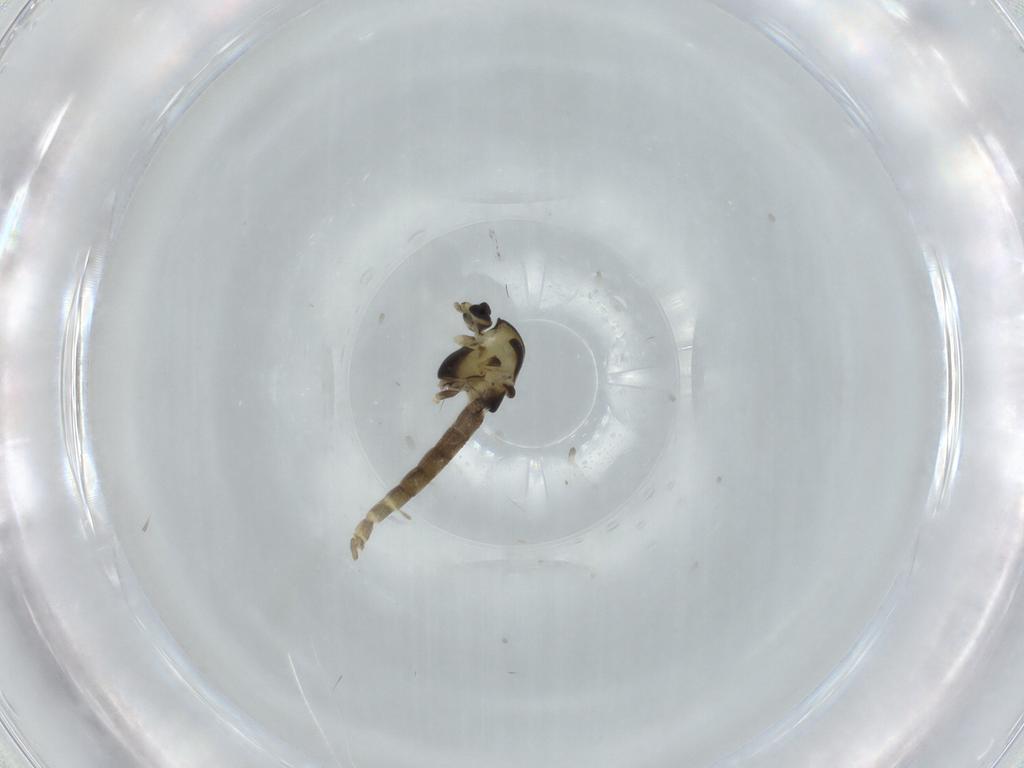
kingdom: Animalia
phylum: Arthropoda
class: Insecta
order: Diptera
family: Chironomidae
